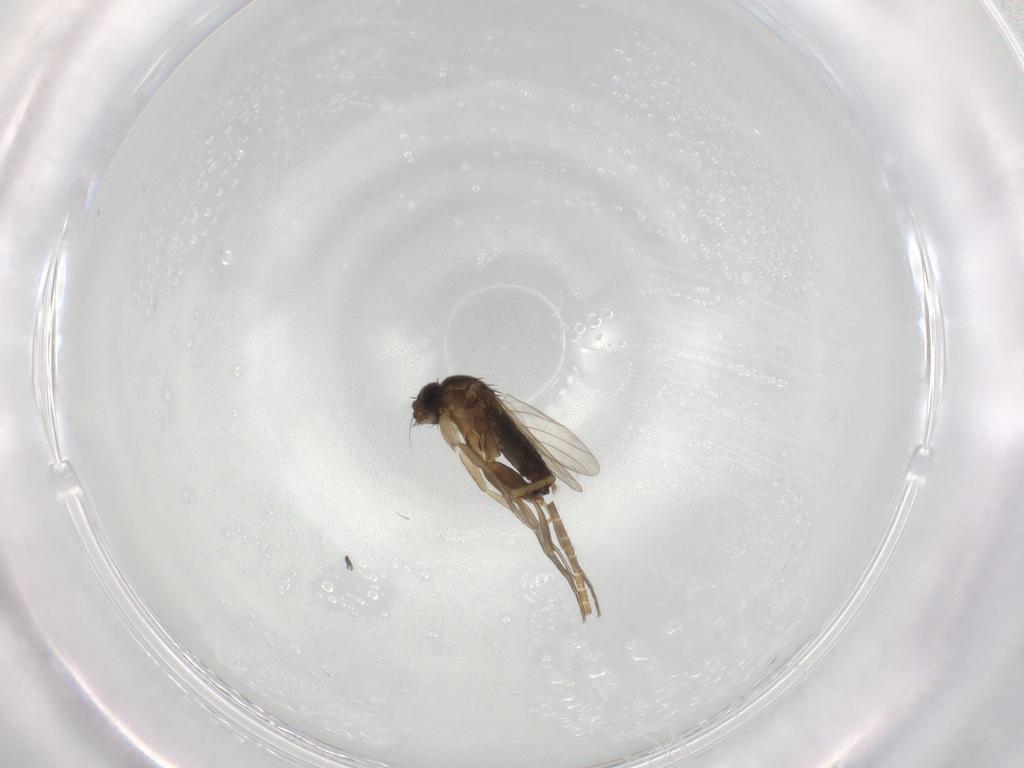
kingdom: Animalia
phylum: Arthropoda
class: Insecta
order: Diptera
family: Phoridae
